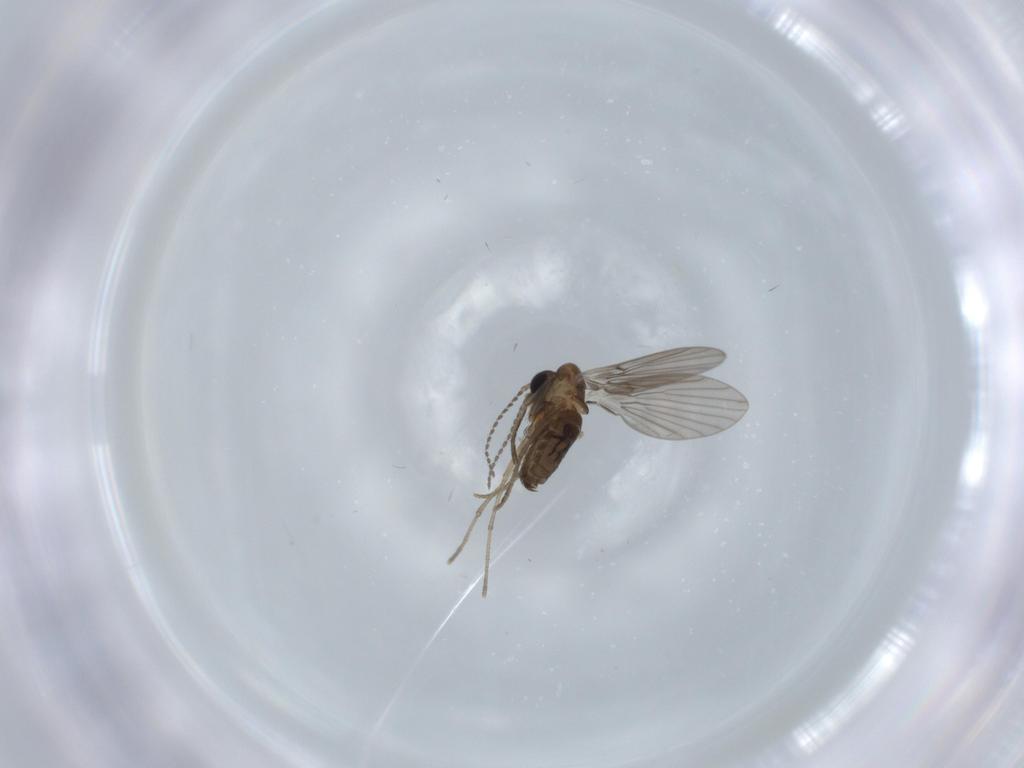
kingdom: Animalia
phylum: Arthropoda
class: Insecta
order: Diptera
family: Psychodidae
